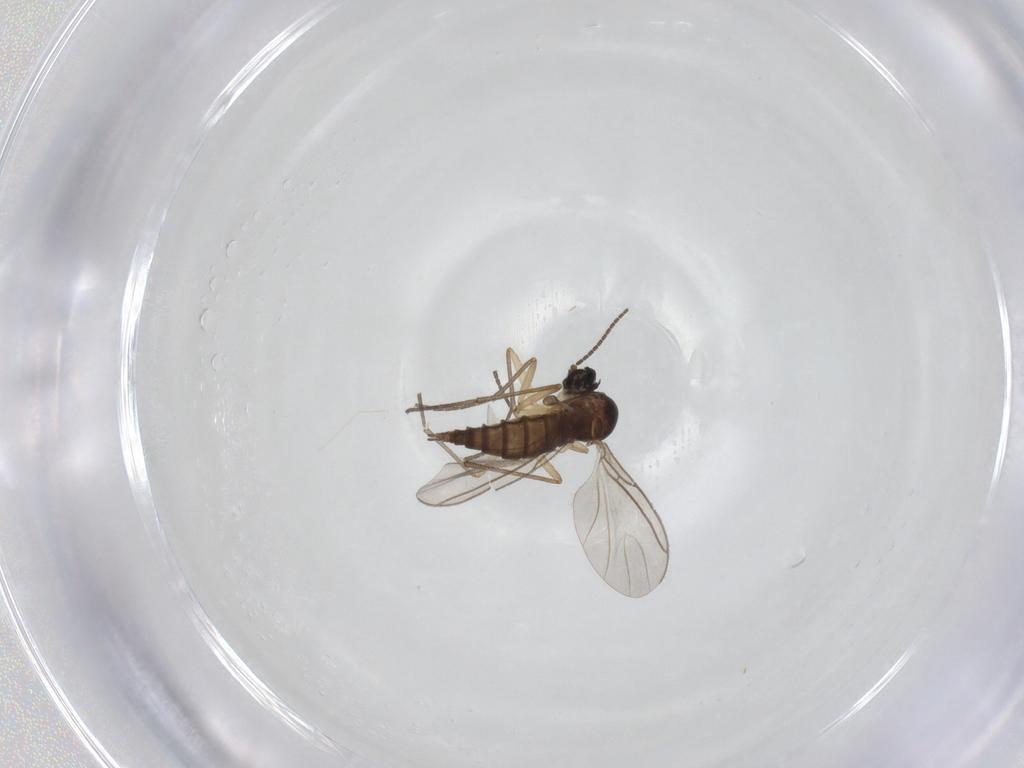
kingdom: Animalia
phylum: Arthropoda
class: Insecta
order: Diptera
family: Sciaridae
